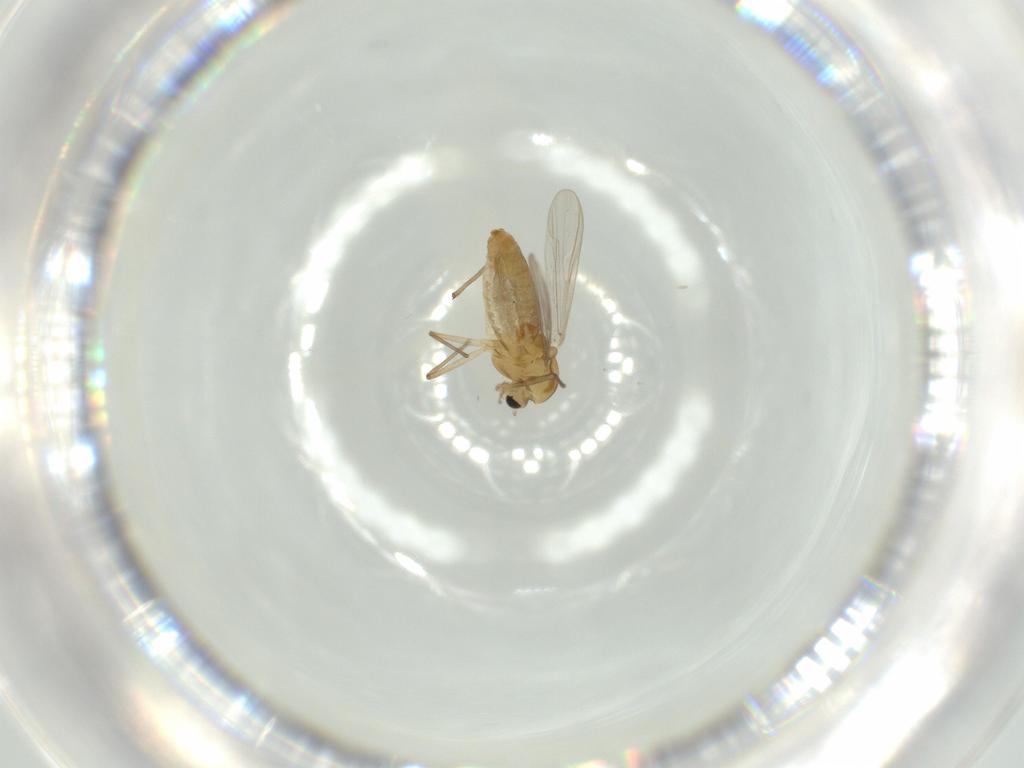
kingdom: Animalia
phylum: Arthropoda
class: Insecta
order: Diptera
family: Chironomidae
